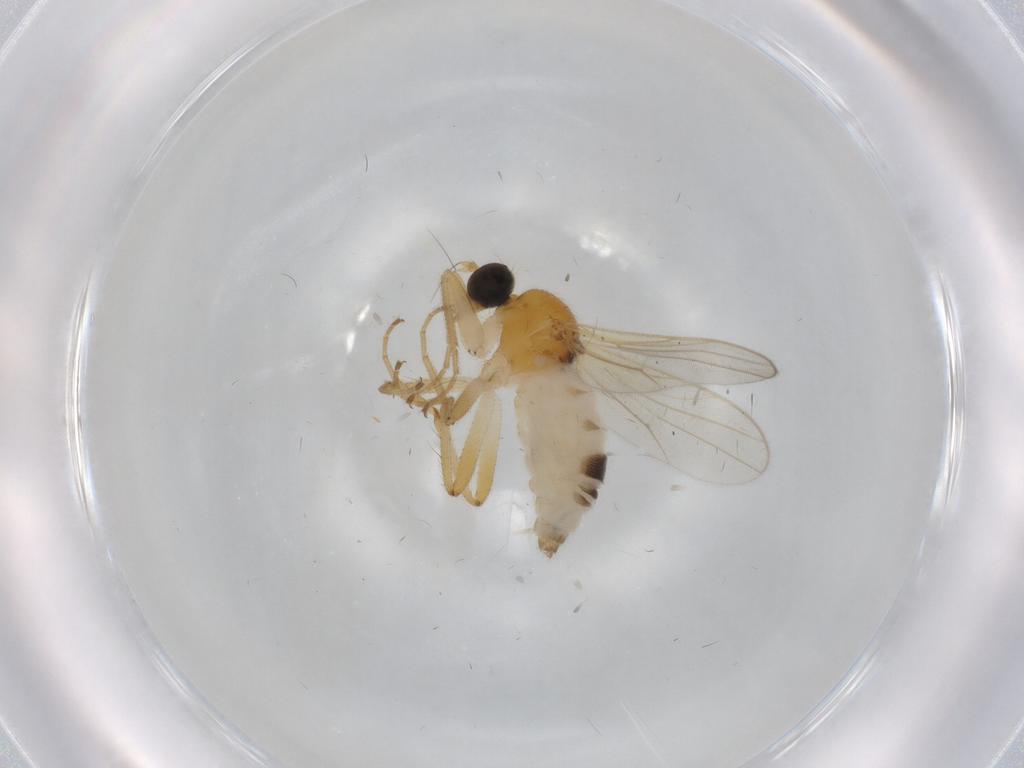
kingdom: Animalia
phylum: Arthropoda
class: Insecta
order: Diptera
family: Hybotidae
